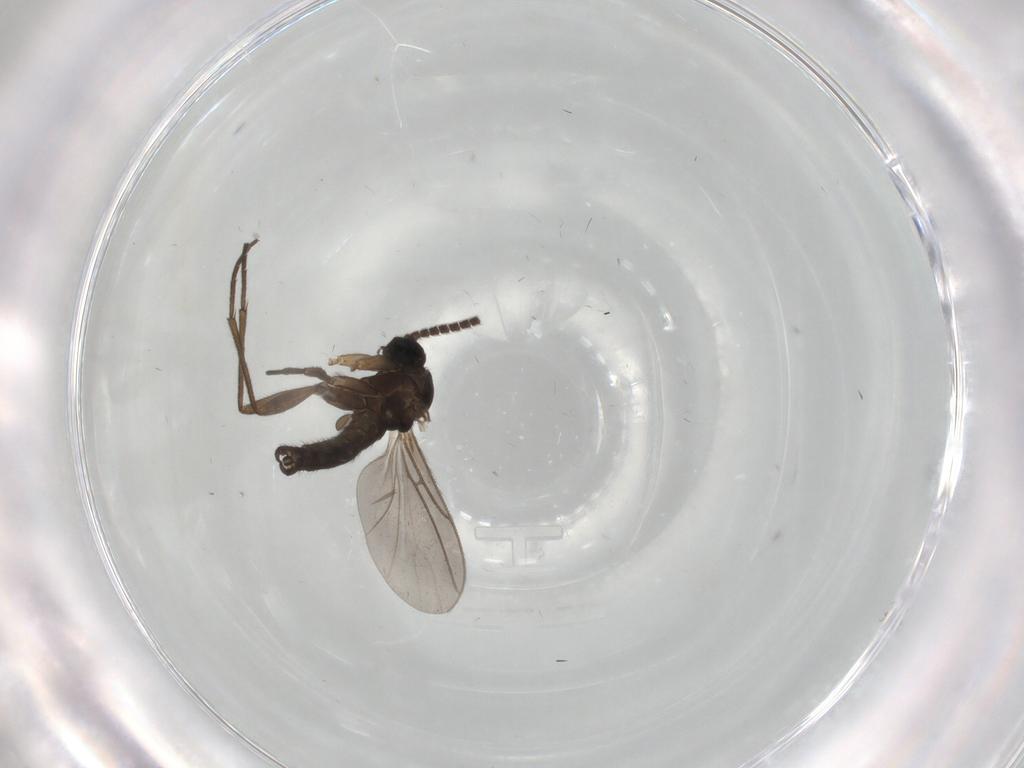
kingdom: Animalia
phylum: Arthropoda
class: Insecta
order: Diptera
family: Sciaridae
